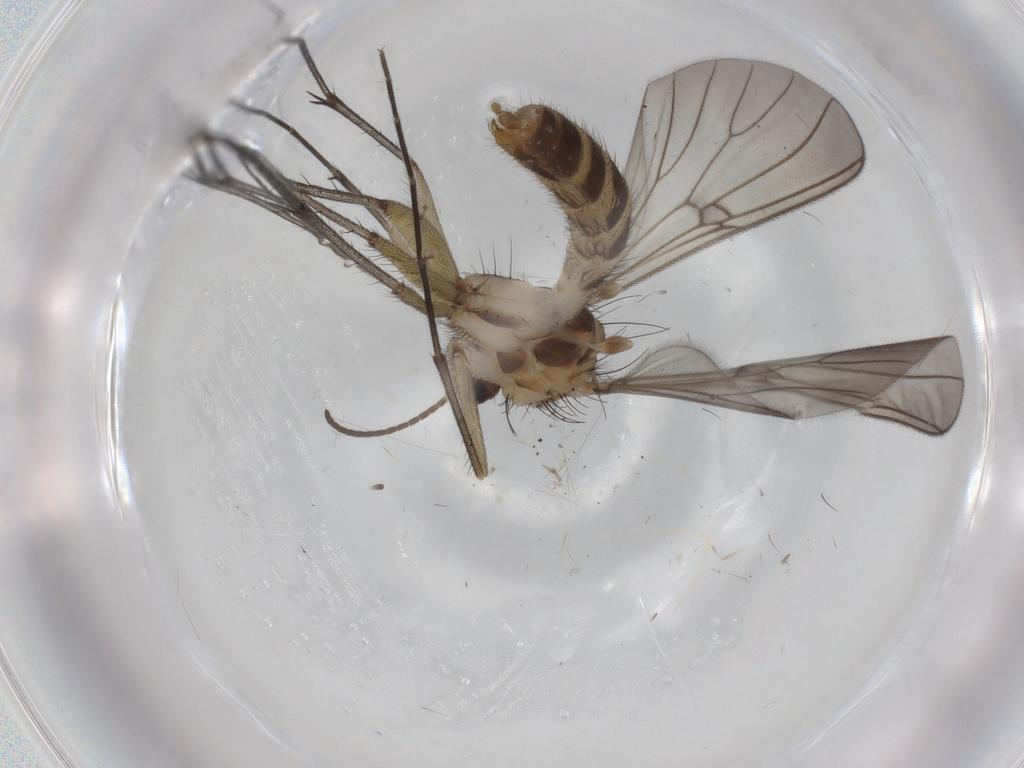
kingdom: Animalia
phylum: Arthropoda
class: Insecta
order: Diptera
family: Mycetophilidae
